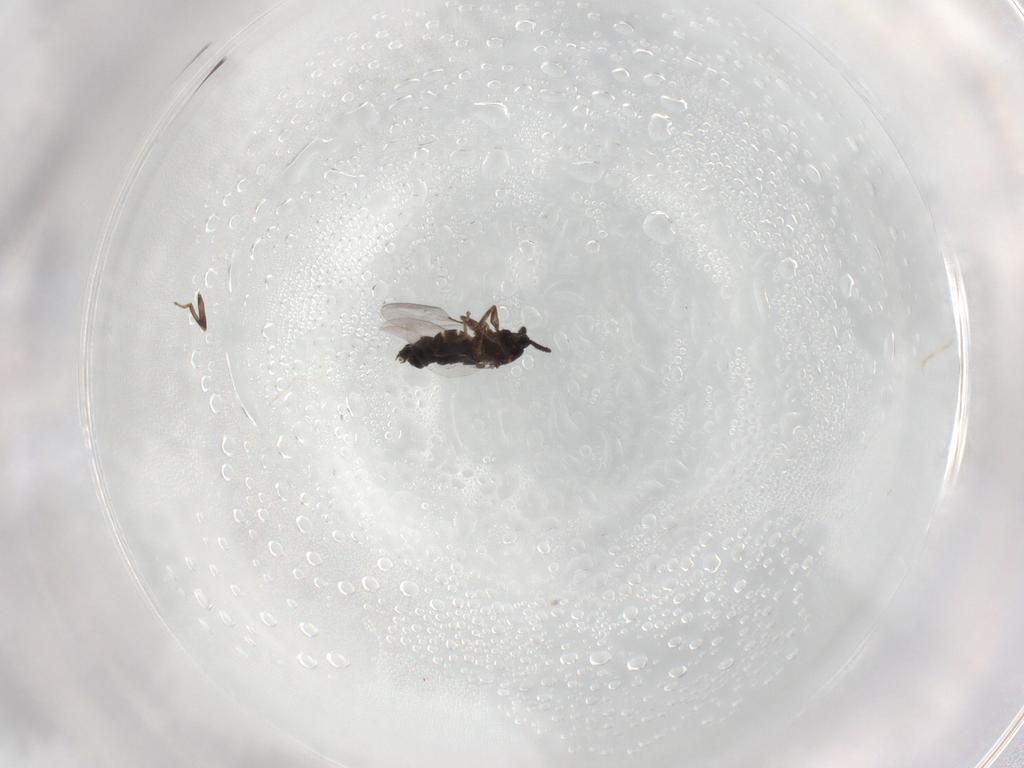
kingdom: Animalia
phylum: Arthropoda
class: Insecta
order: Diptera
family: Scatopsidae
